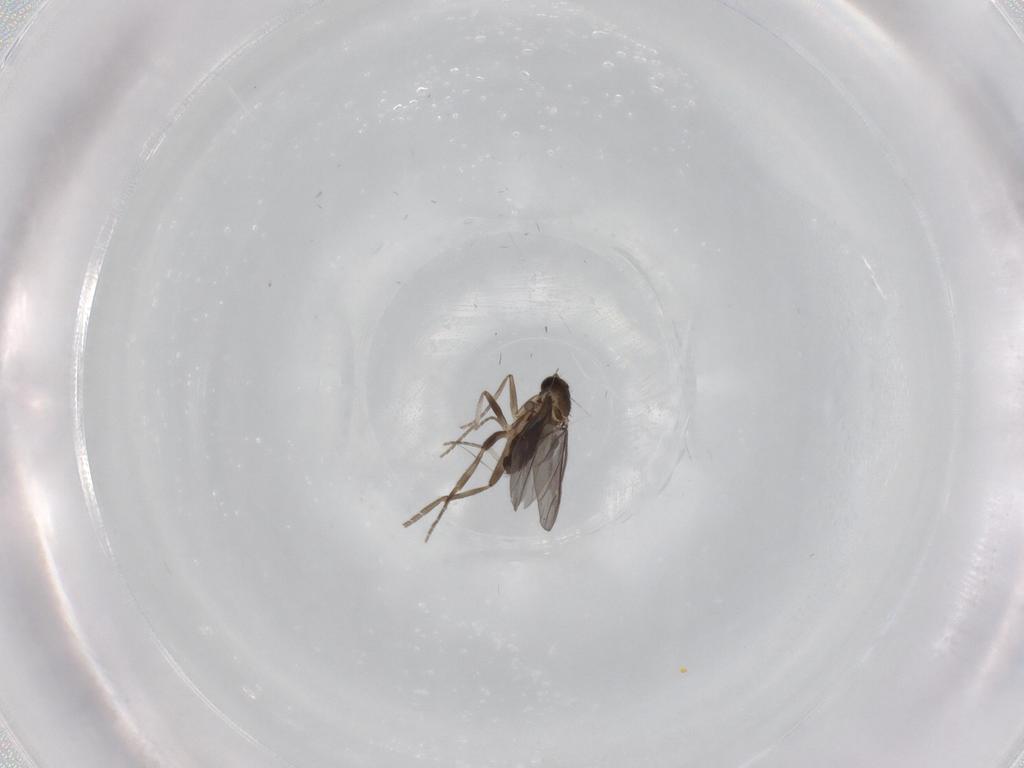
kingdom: Animalia
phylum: Arthropoda
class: Insecta
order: Diptera
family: Phoridae
